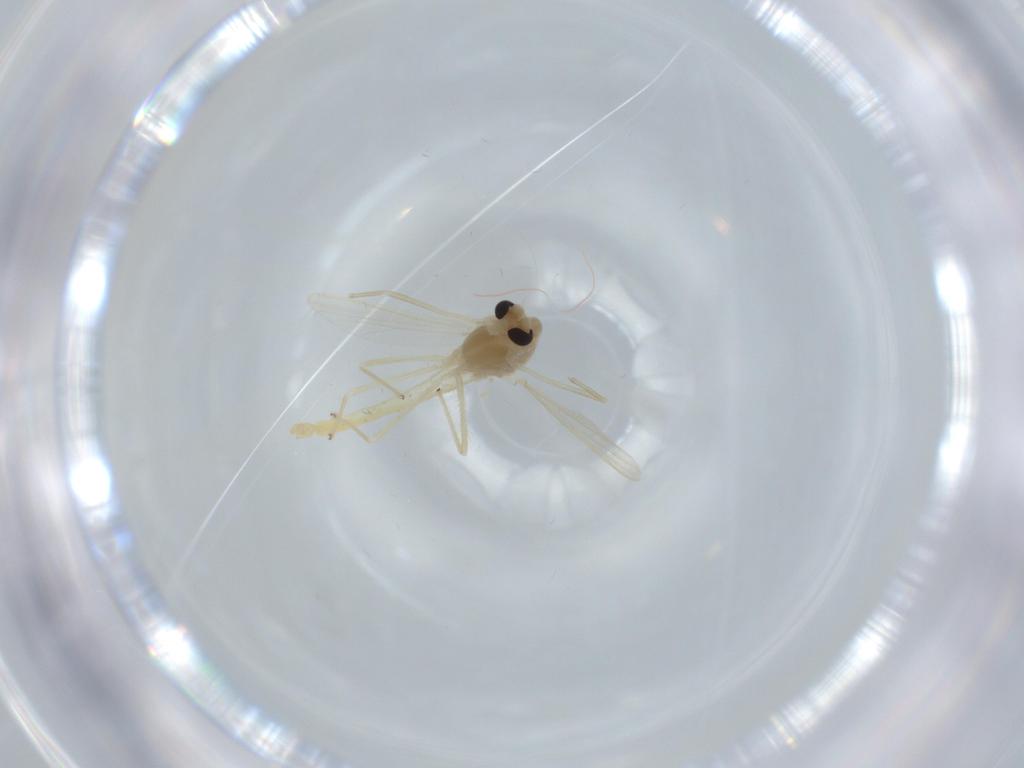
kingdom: Animalia
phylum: Arthropoda
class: Insecta
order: Diptera
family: Chironomidae
